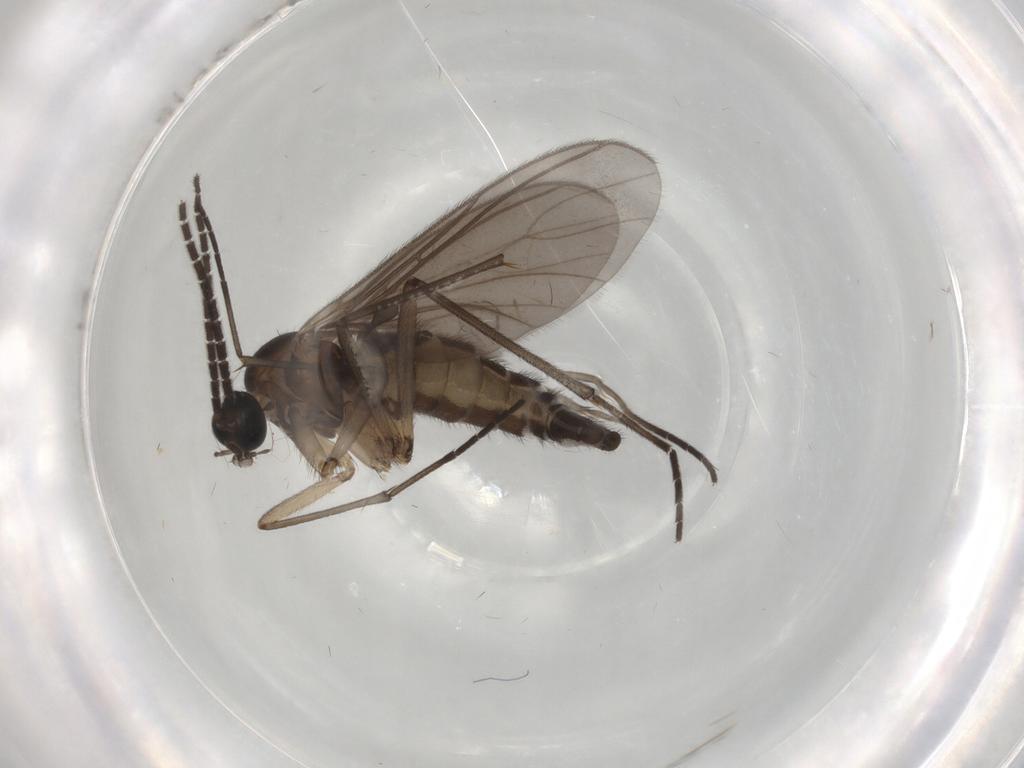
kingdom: Animalia
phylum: Arthropoda
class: Insecta
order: Diptera
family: Sciaridae
